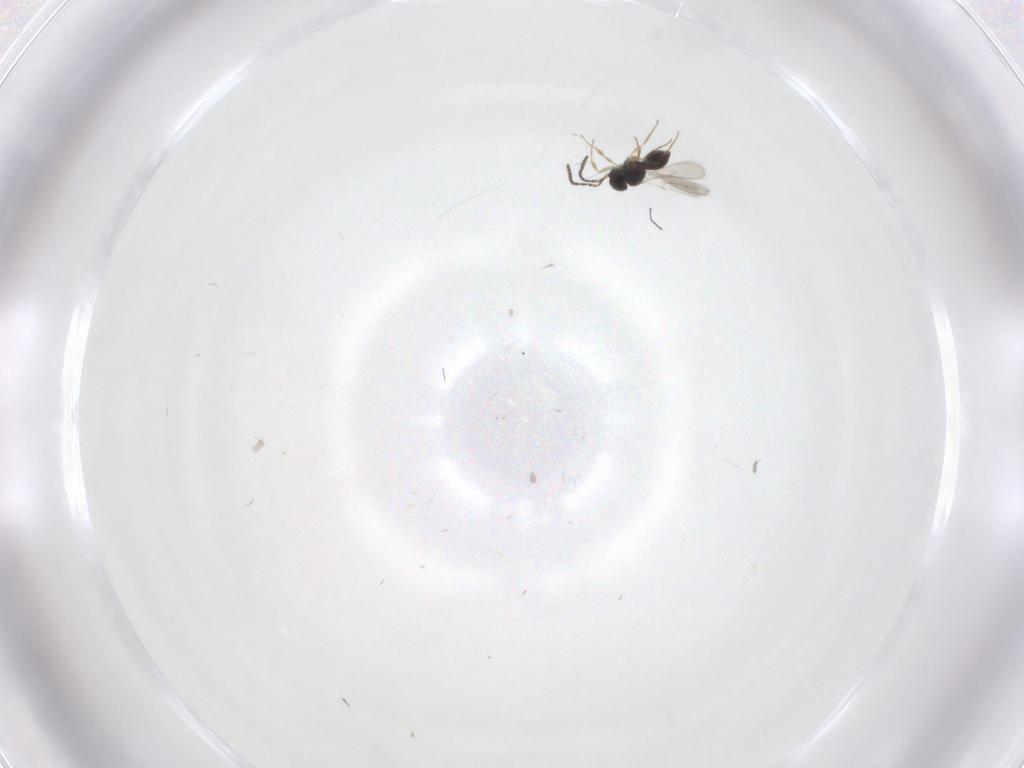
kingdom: Animalia
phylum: Arthropoda
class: Insecta
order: Hymenoptera
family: Scelionidae
